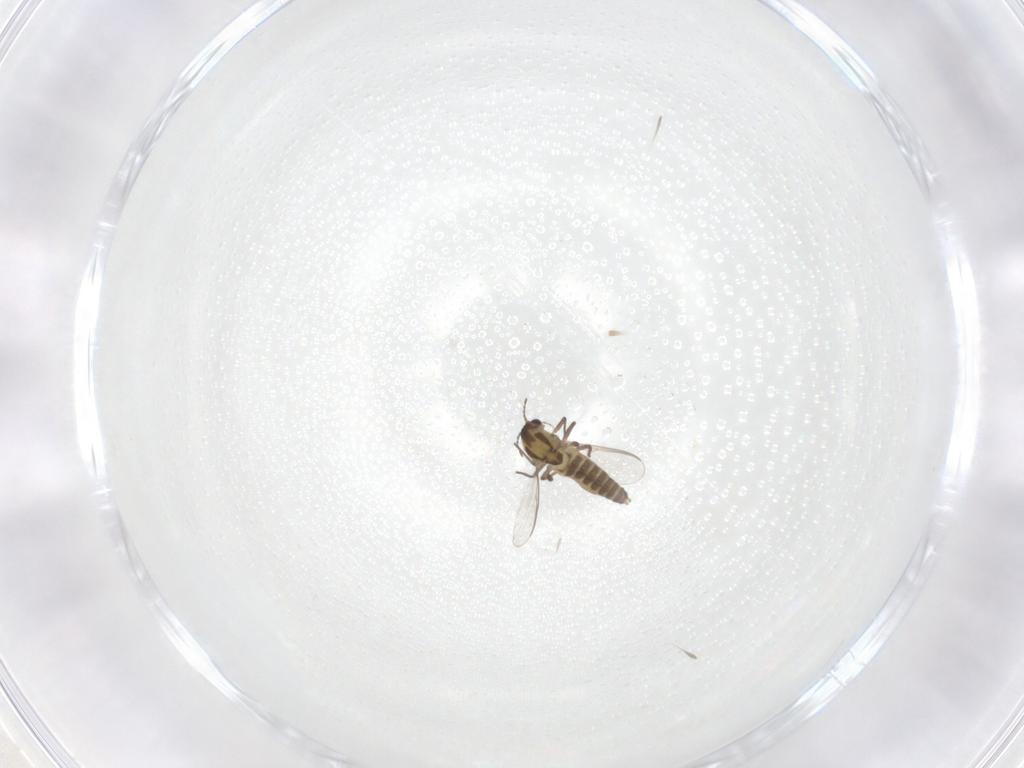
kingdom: Animalia
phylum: Arthropoda
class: Insecta
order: Diptera
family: Chironomidae
